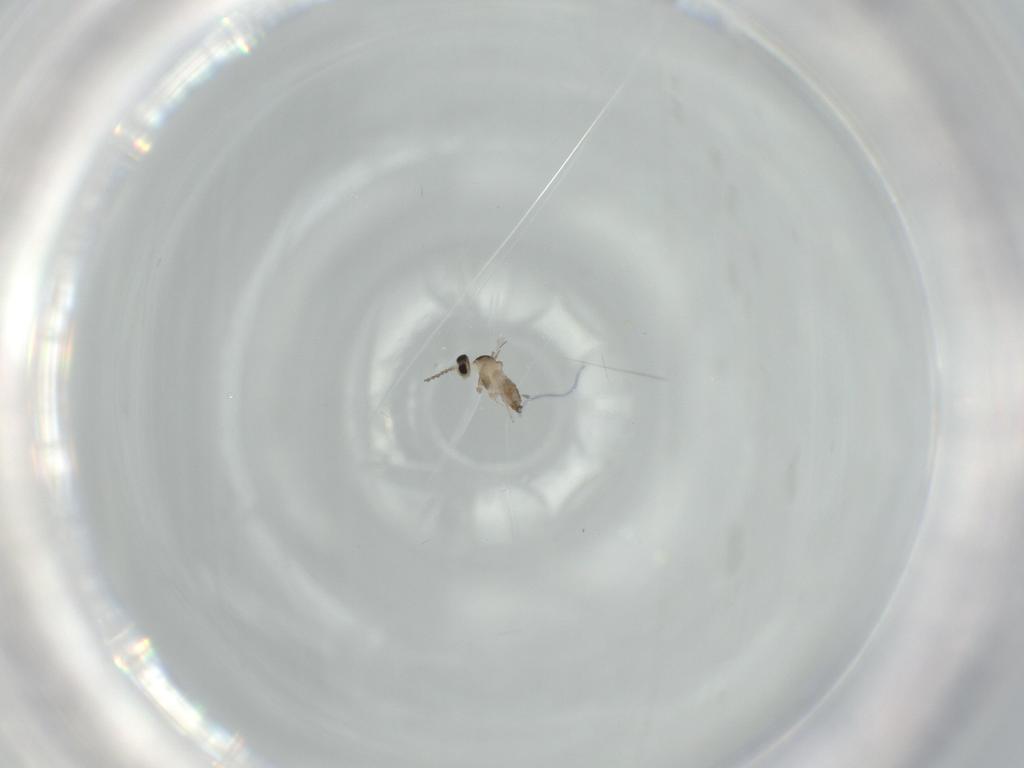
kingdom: Animalia
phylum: Arthropoda
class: Insecta
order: Diptera
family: Cecidomyiidae
